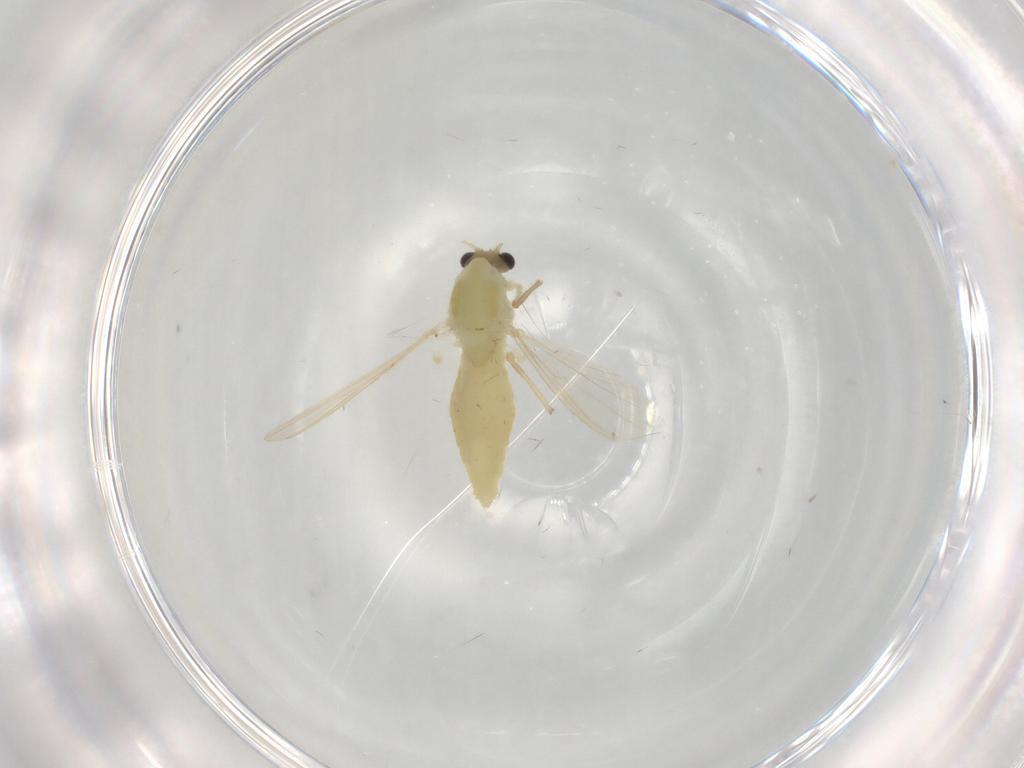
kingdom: Animalia
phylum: Arthropoda
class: Insecta
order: Diptera
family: Chironomidae
